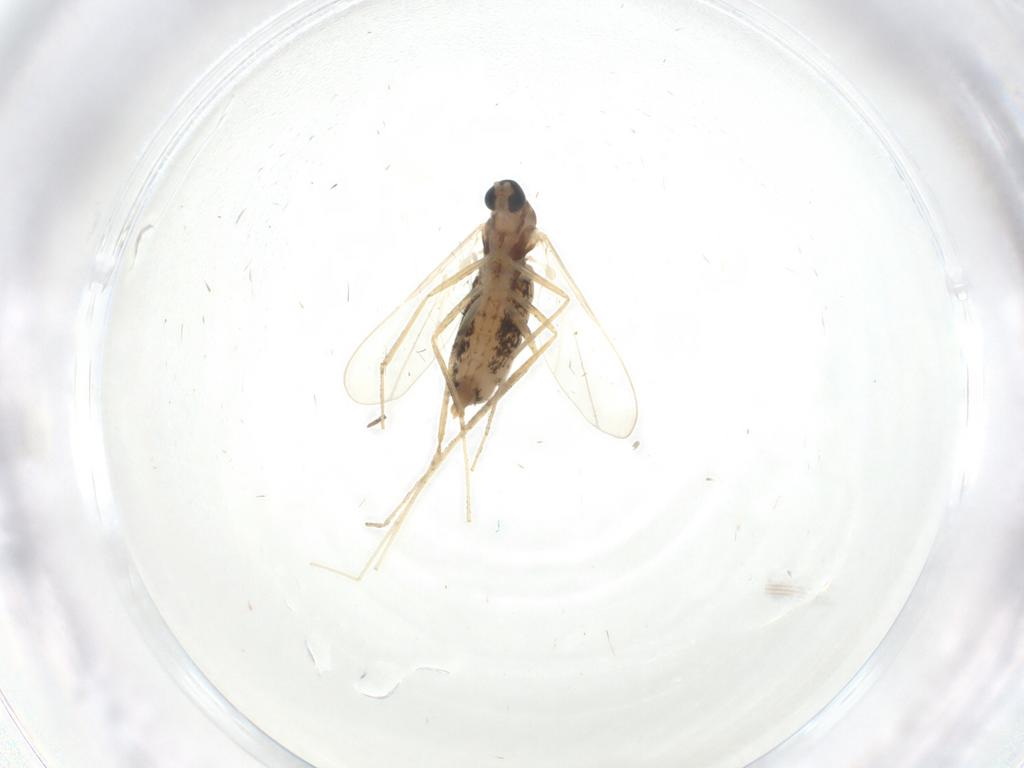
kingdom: Animalia
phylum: Arthropoda
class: Insecta
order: Diptera
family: Cecidomyiidae
